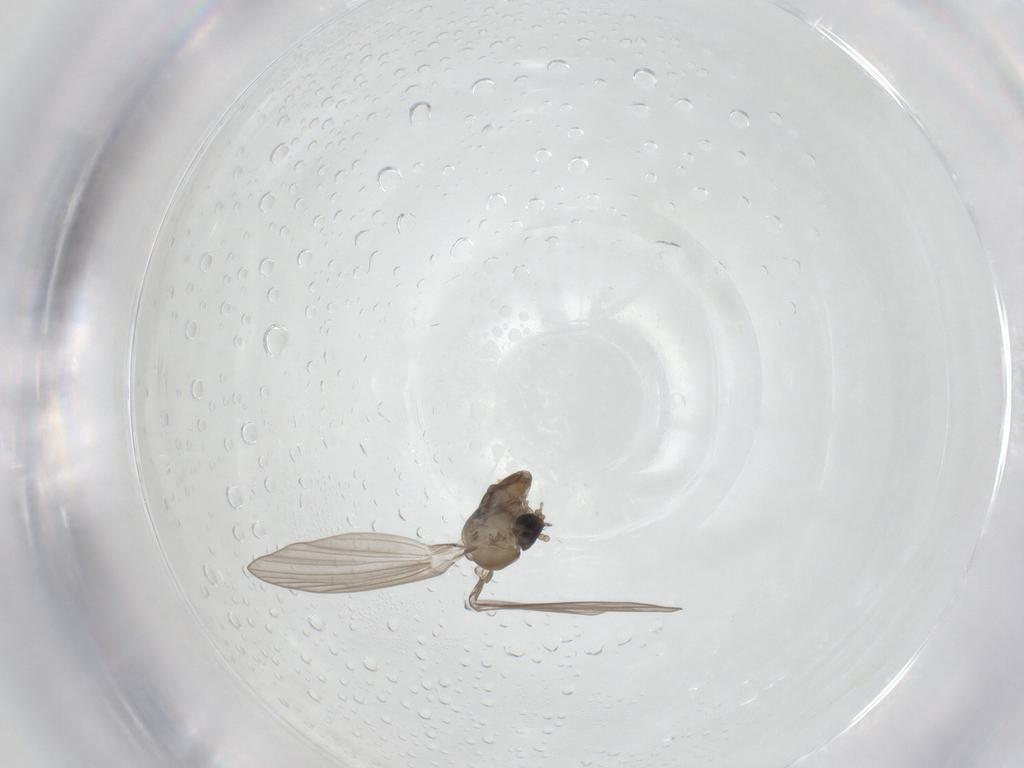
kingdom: Animalia
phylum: Arthropoda
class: Insecta
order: Diptera
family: Psychodidae
